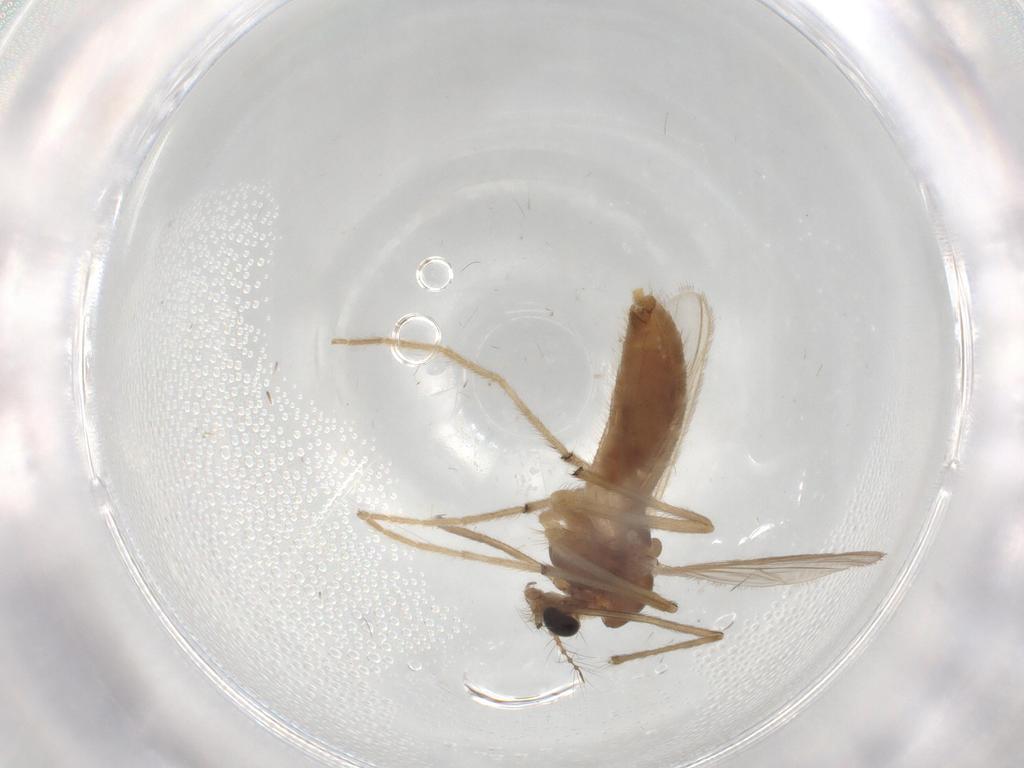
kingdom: Animalia
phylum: Arthropoda
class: Insecta
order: Diptera
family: Chironomidae
